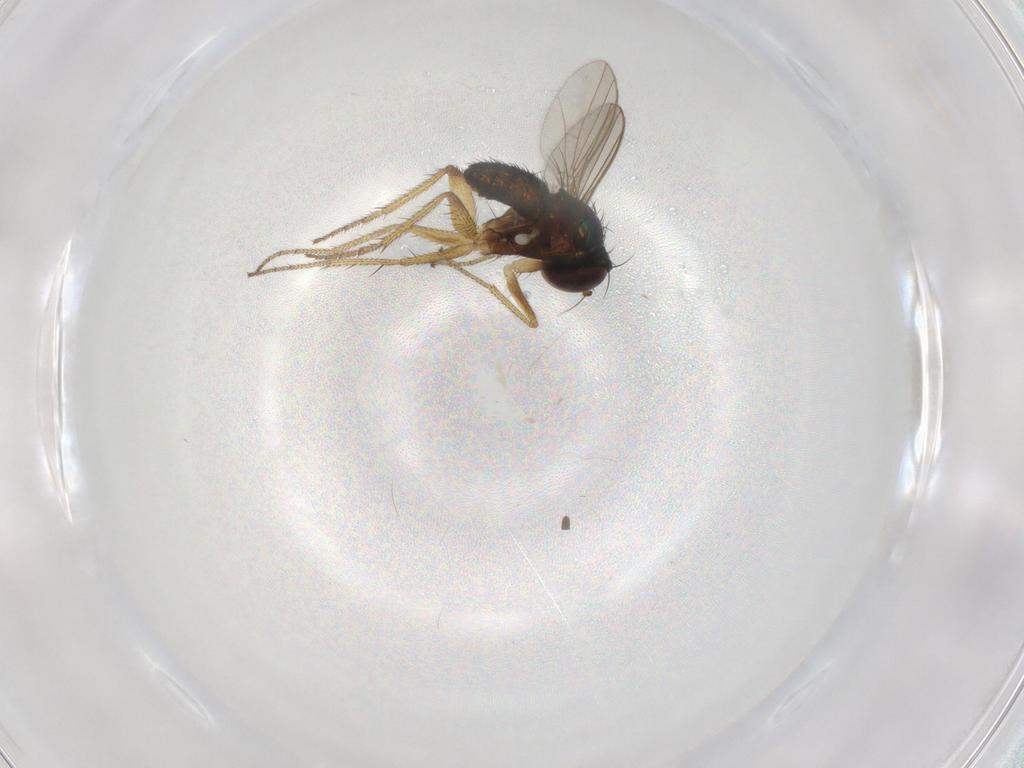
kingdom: Animalia
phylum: Arthropoda
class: Insecta
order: Diptera
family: Dolichopodidae
